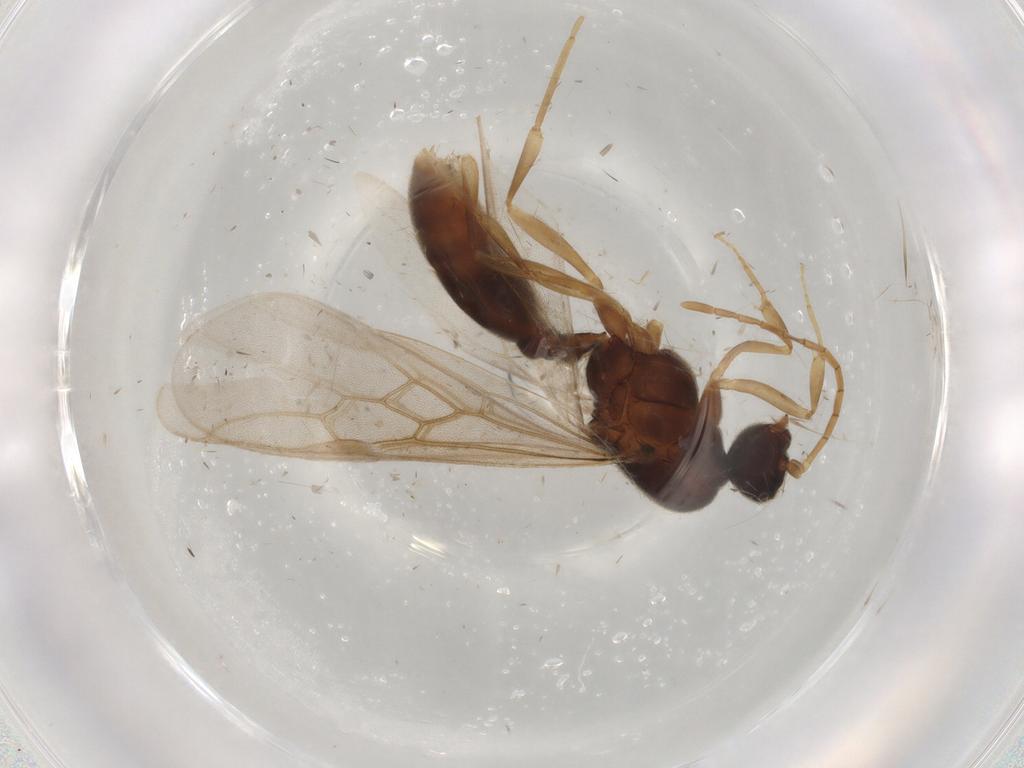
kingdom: Animalia
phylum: Arthropoda
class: Insecta
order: Hymenoptera
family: Formicidae
